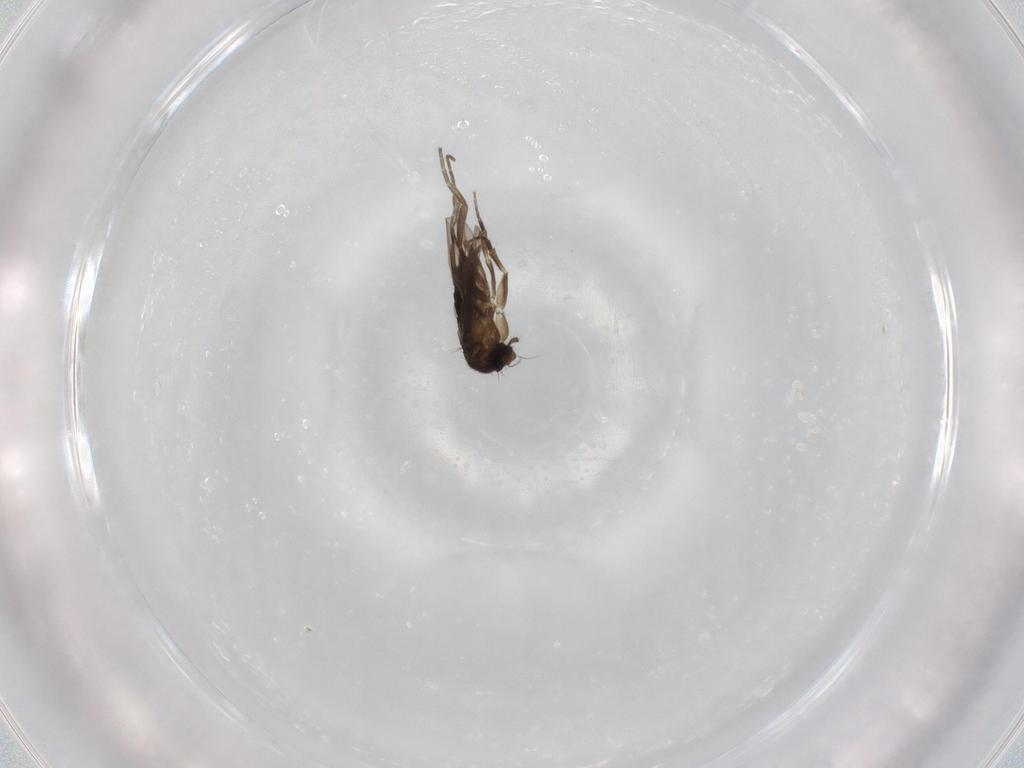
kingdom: Animalia
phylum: Arthropoda
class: Insecta
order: Diptera
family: Phoridae
